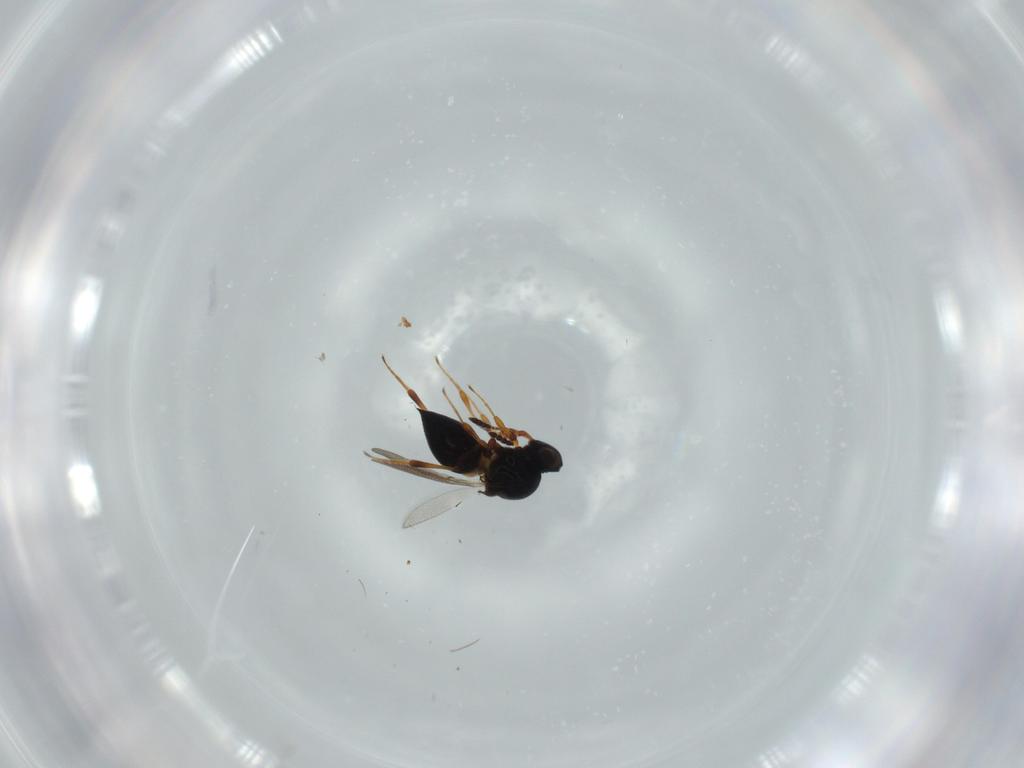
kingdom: Animalia
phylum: Arthropoda
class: Insecta
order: Hymenoptera
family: Platygastridae
